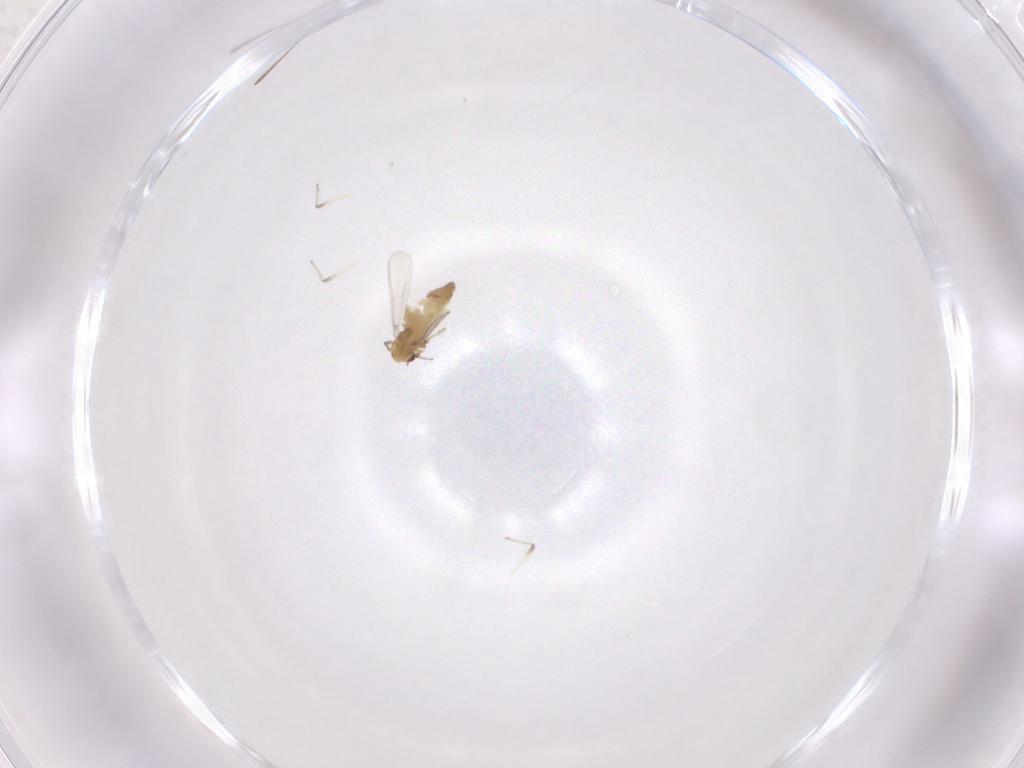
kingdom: Animalia
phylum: Arthropoda
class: Insecta
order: Diptera
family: Chironomidae
